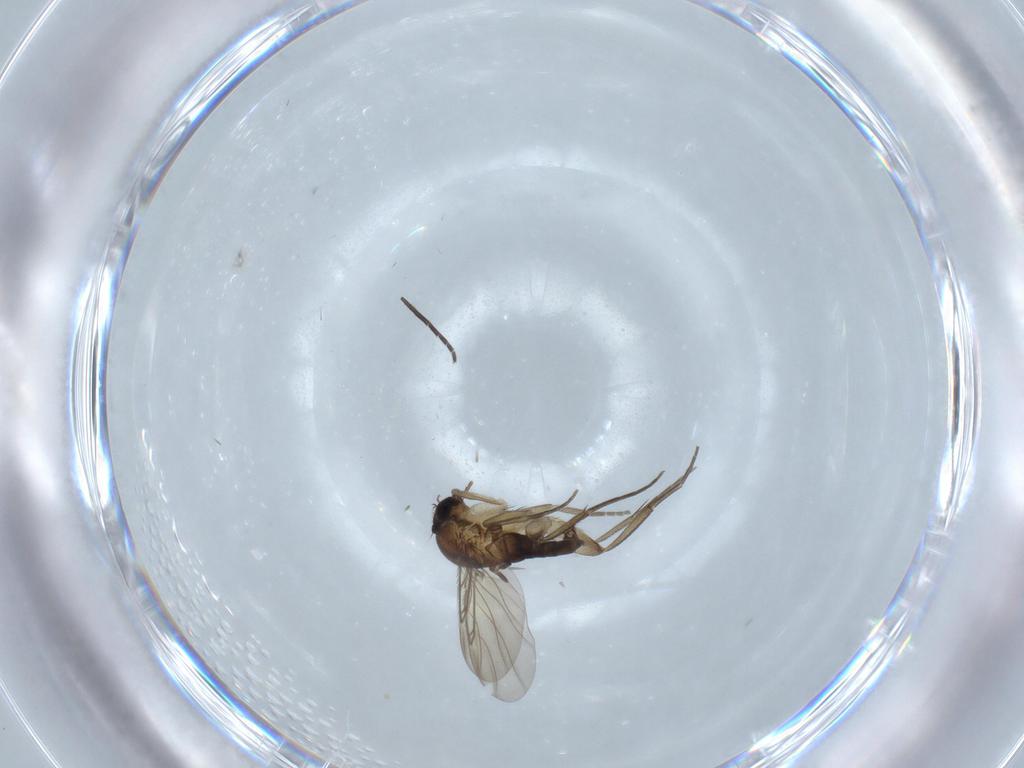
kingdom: Animalia
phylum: Arthropoda
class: Insecta
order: Diptera
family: Phoridae
